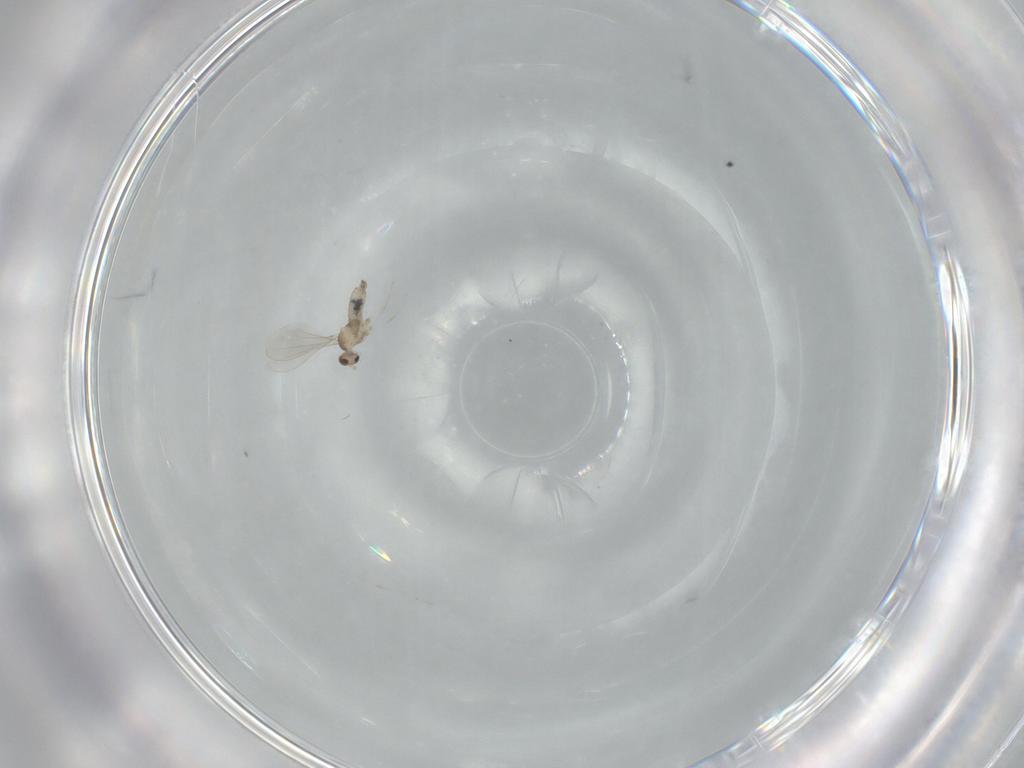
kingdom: Animalia
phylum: Arthropoda
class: Insecta
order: Diptera
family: Cecidomyiidae
